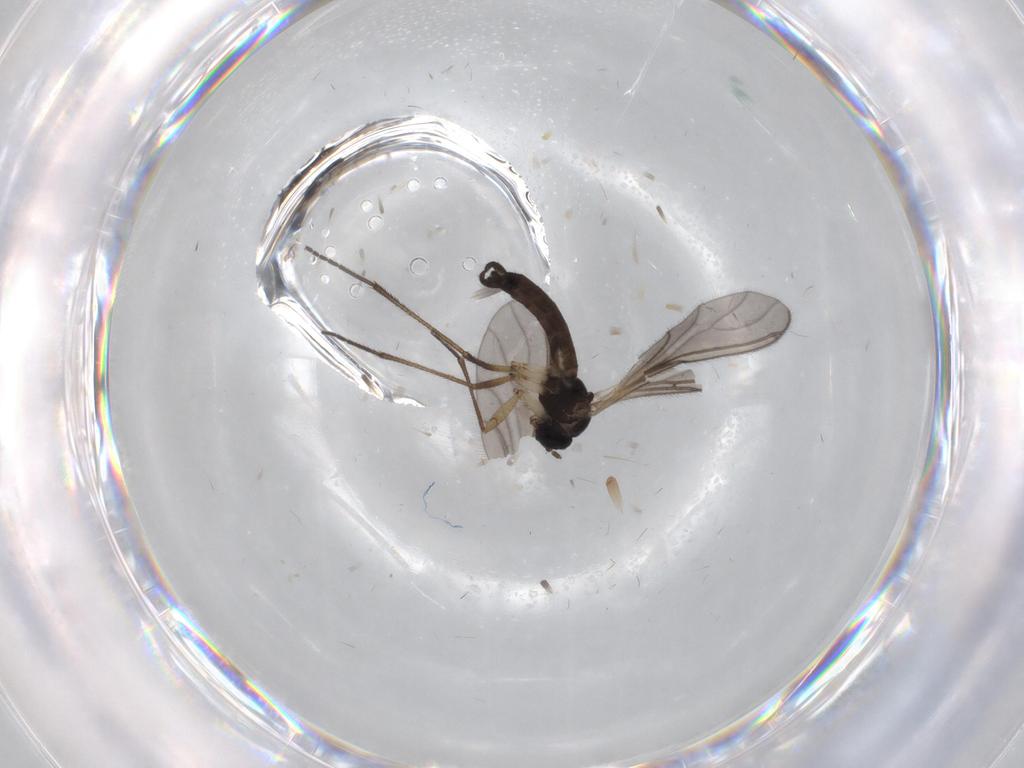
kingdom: Animalia
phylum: Arthropoda
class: Insecta
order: Diptera
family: Sciaridae
